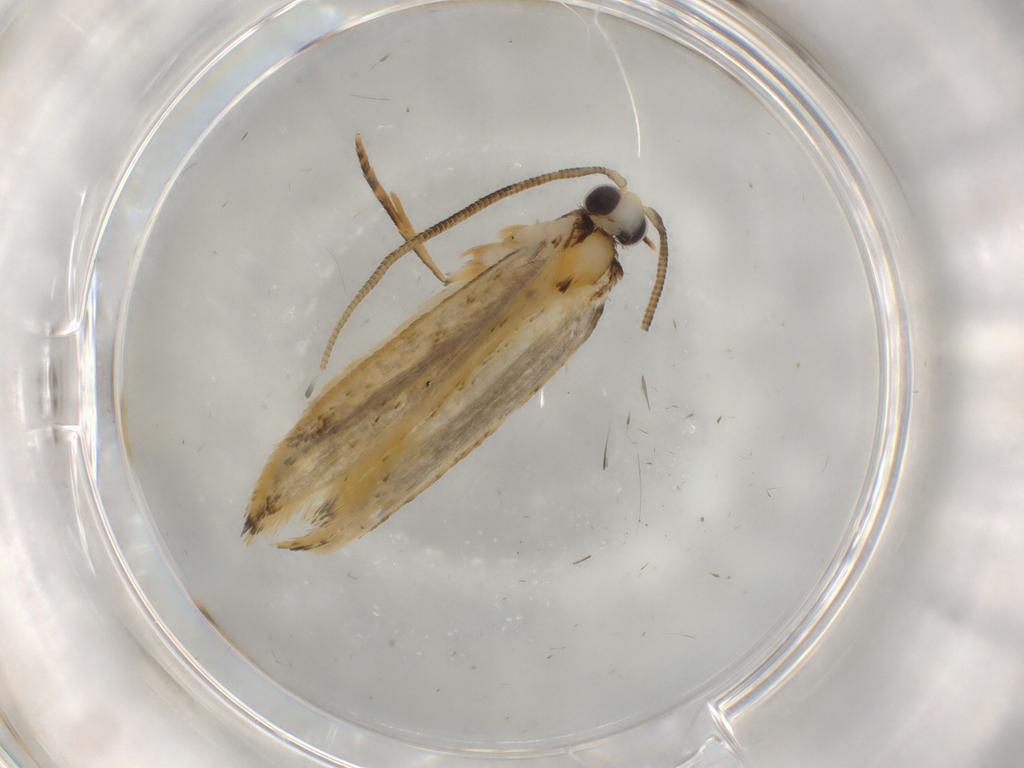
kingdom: Animalia
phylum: Arthropoda
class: Insecta
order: Lepidoptera
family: Tineidae
